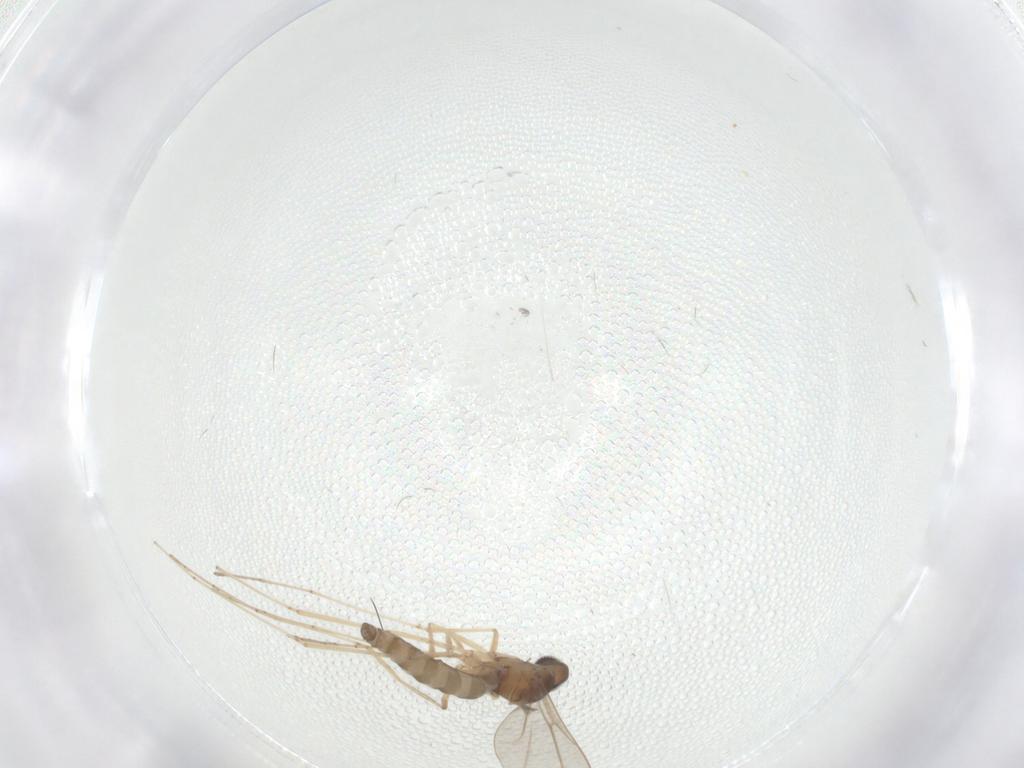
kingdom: Animalia
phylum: Arthropoda
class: Insecta
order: Diptera
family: Cecidomyiidae
